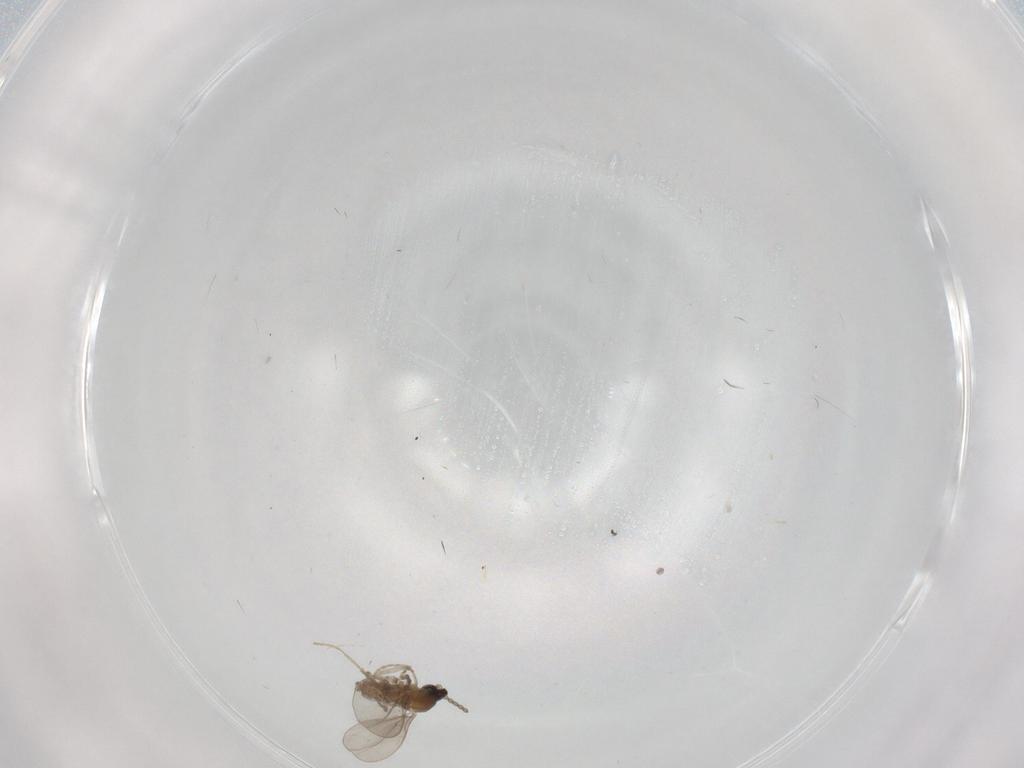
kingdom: Animalia
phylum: Arthropoda
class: Insecta
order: Diptera
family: Cecidomyiidae
